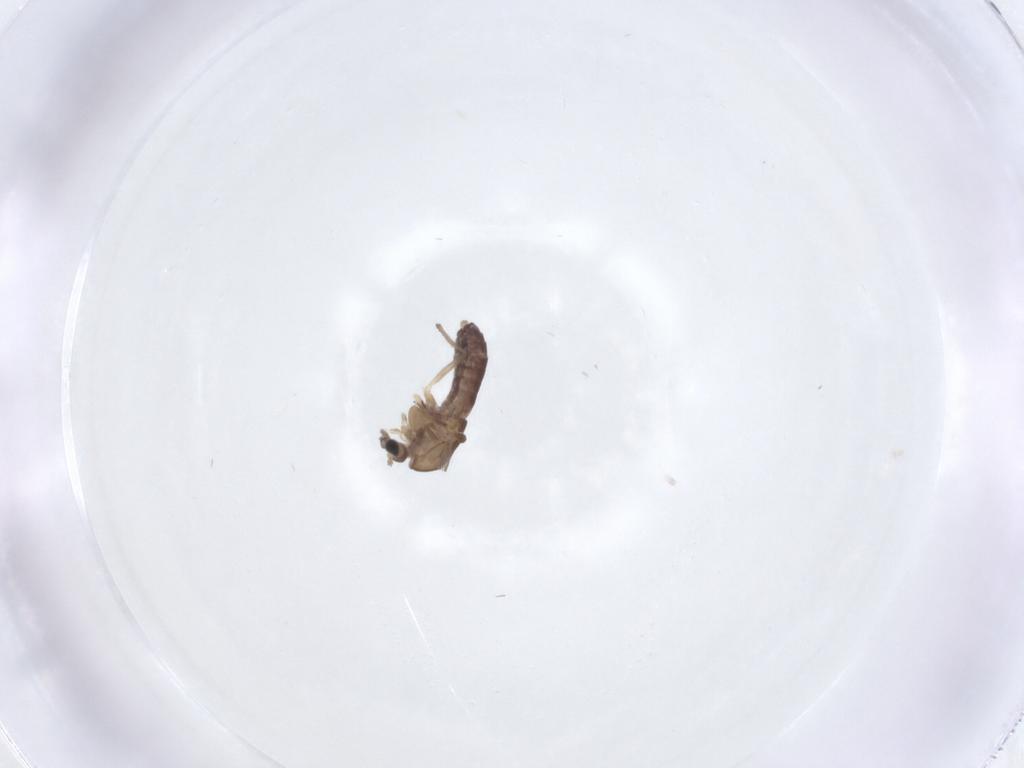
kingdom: Animalia
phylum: Arthropoda
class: Insecta
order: Diptera
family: Chironomidae
